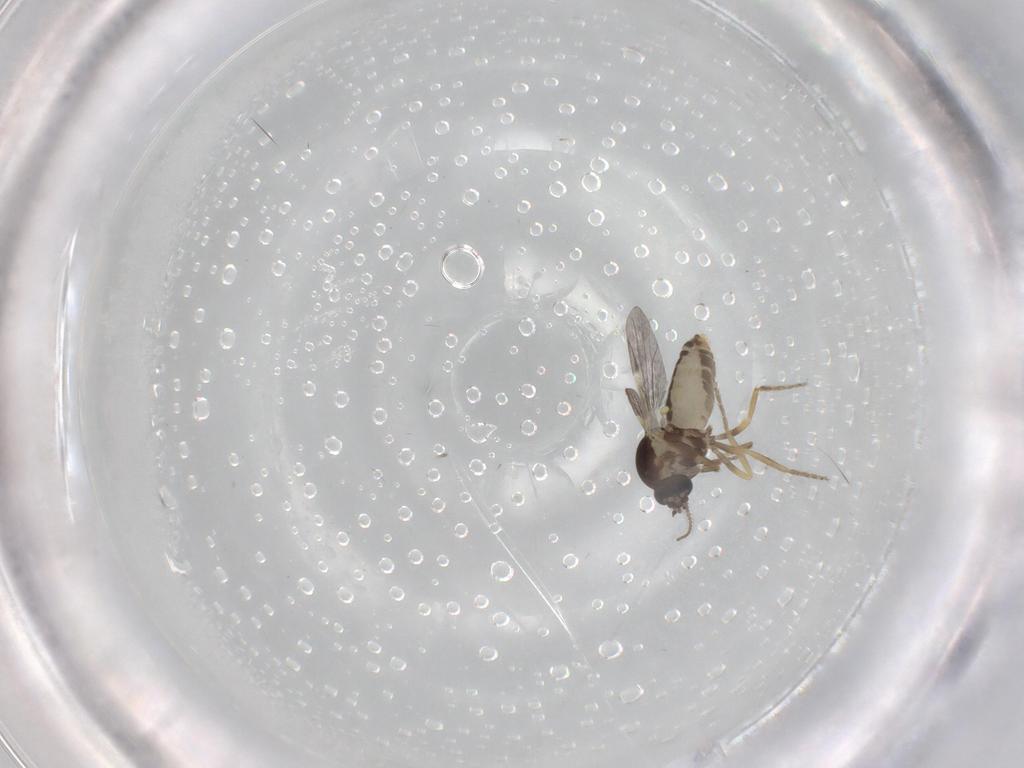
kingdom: Animalia
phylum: Arthropoda
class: Insecta
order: Diptera
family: Ceratopogonidae
